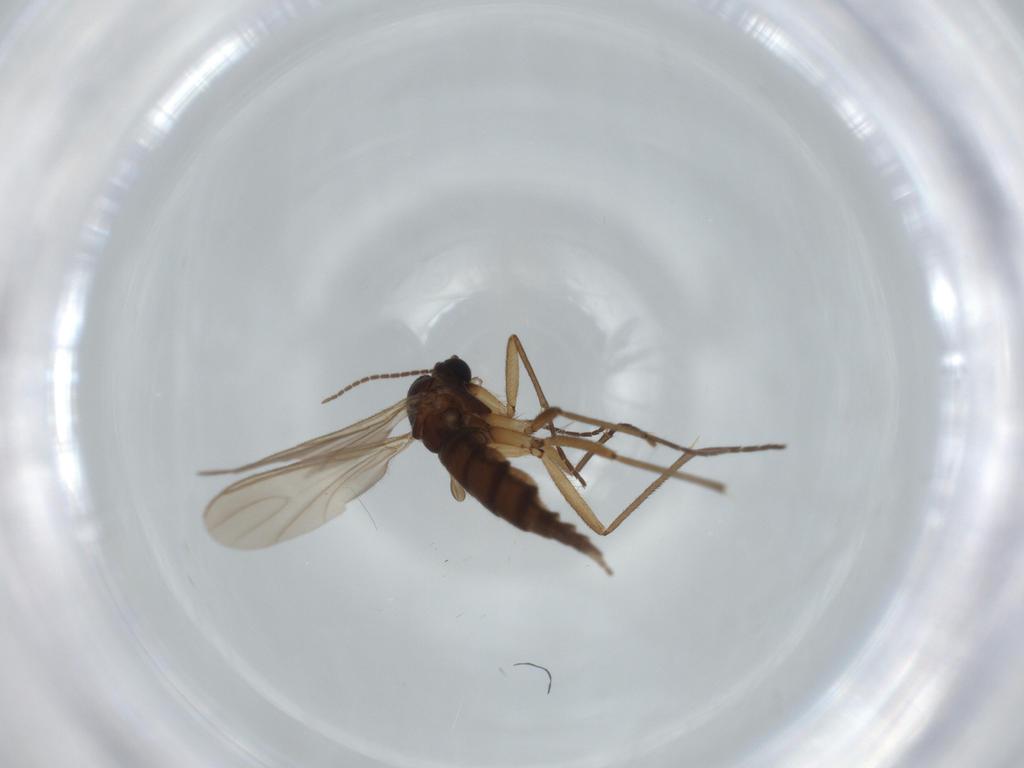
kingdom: Animalia
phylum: Arthropoda
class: Insecta
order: Diptera
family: Sciaridae
